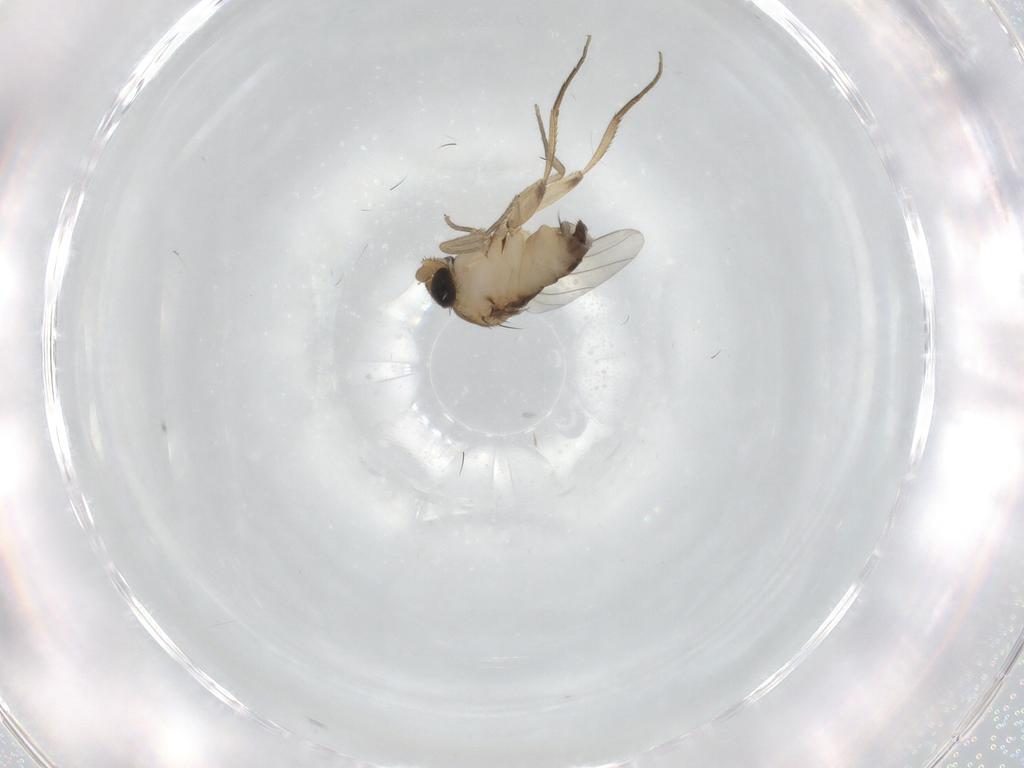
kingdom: Animalia
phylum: Arthropoda
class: Insecta
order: Diptera
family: Phoridae
